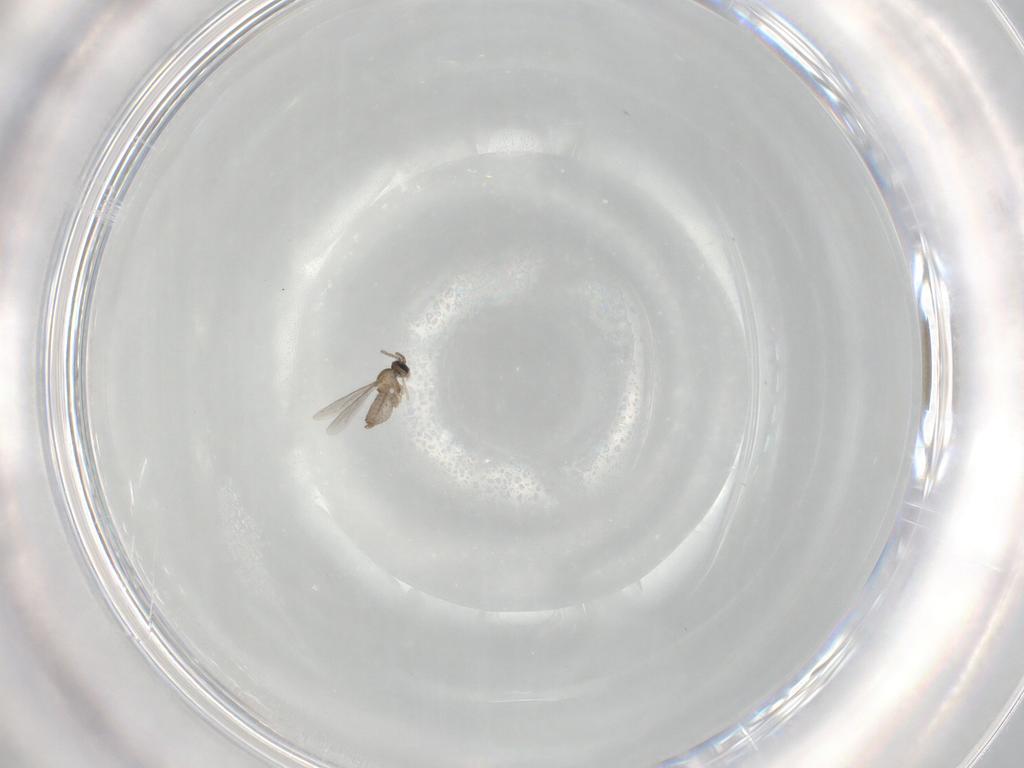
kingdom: Animalia
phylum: Arthropoda
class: Insecta
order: Diptera
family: Cecidomyiidae
